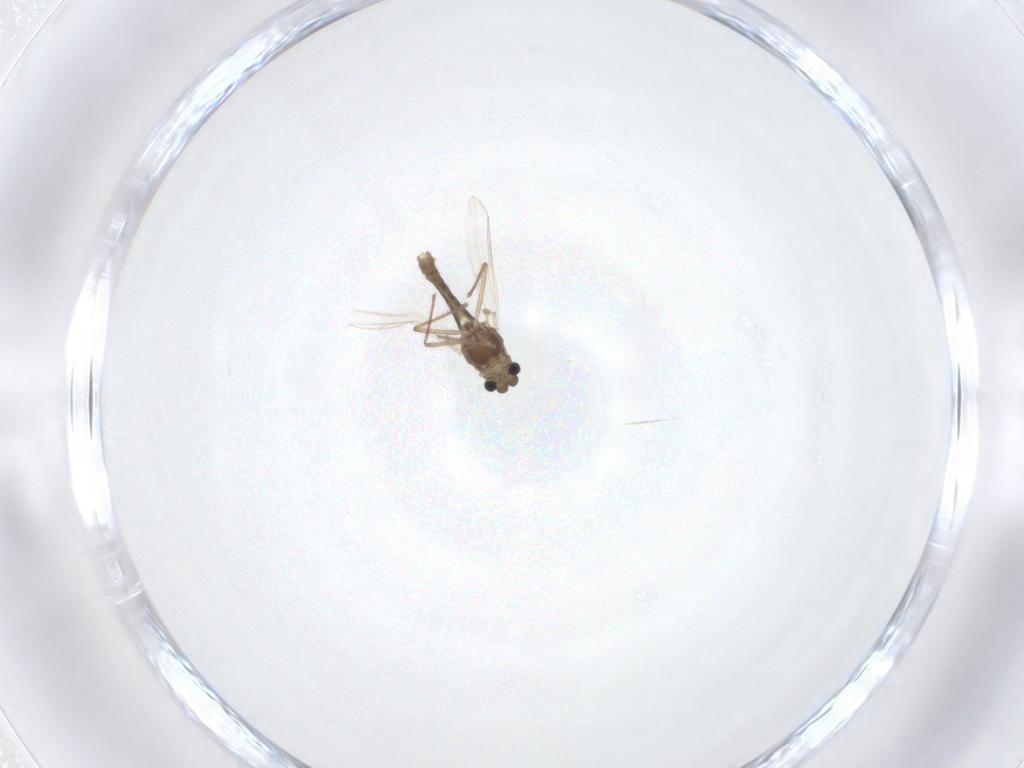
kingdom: Animalia
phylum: Arthropoda
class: Insecta
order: Diptera
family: Chironomidae
